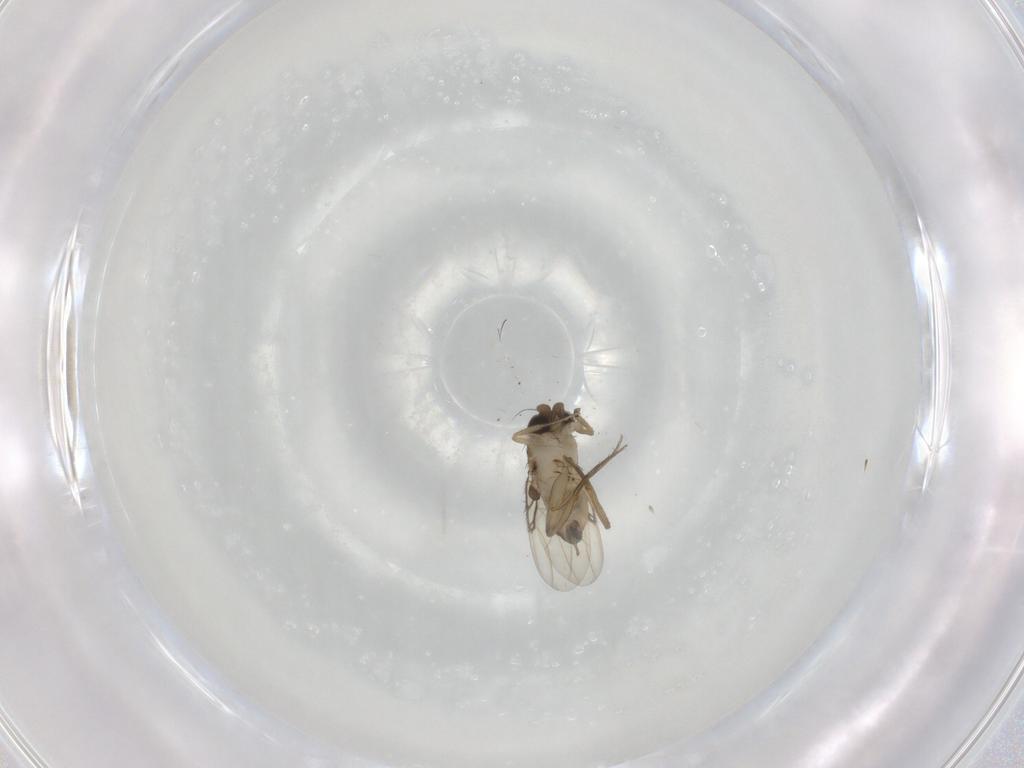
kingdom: Animalia
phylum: Arthropoda
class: Insecta
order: Diptera
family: Phoridae
